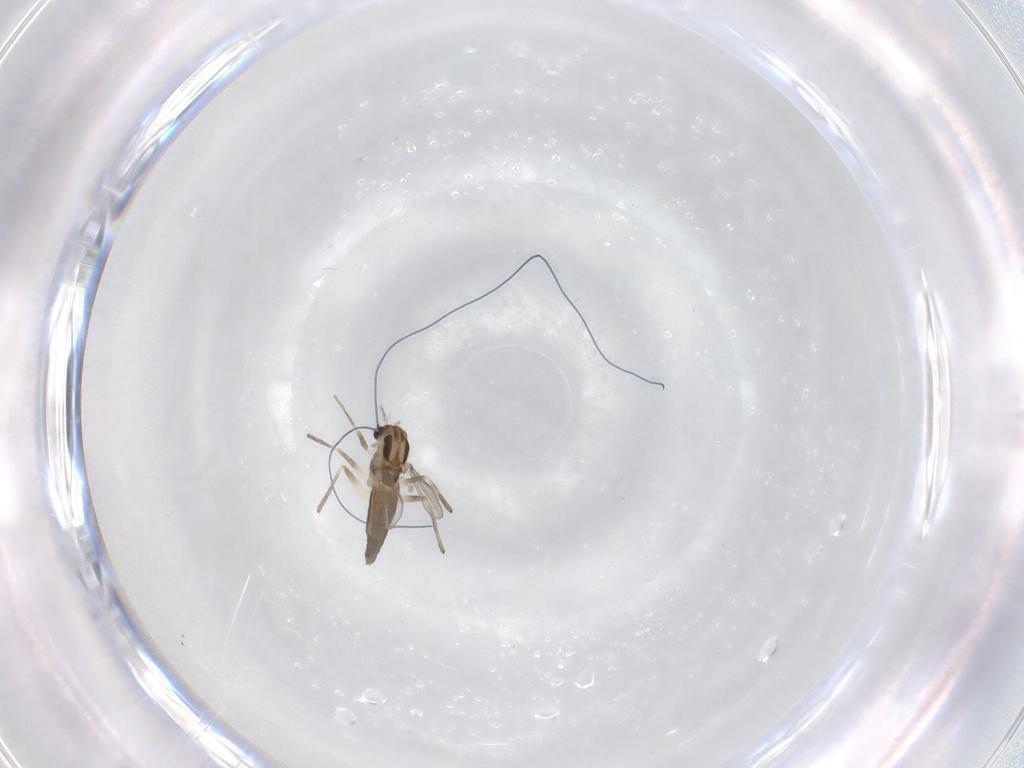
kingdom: Animalia
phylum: Arthropoda
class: Insecta
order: Diptera
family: Chironomidae
